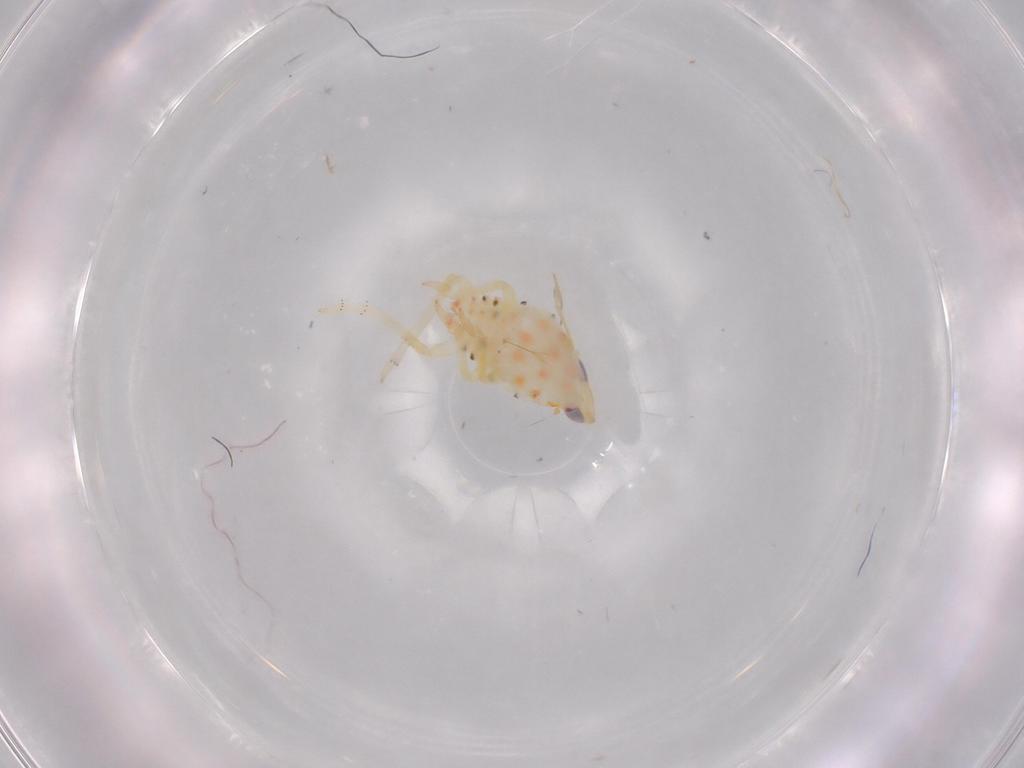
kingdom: Animalia
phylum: Arthropoda
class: Insecta
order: Hemiptera
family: Tropiduchidae
